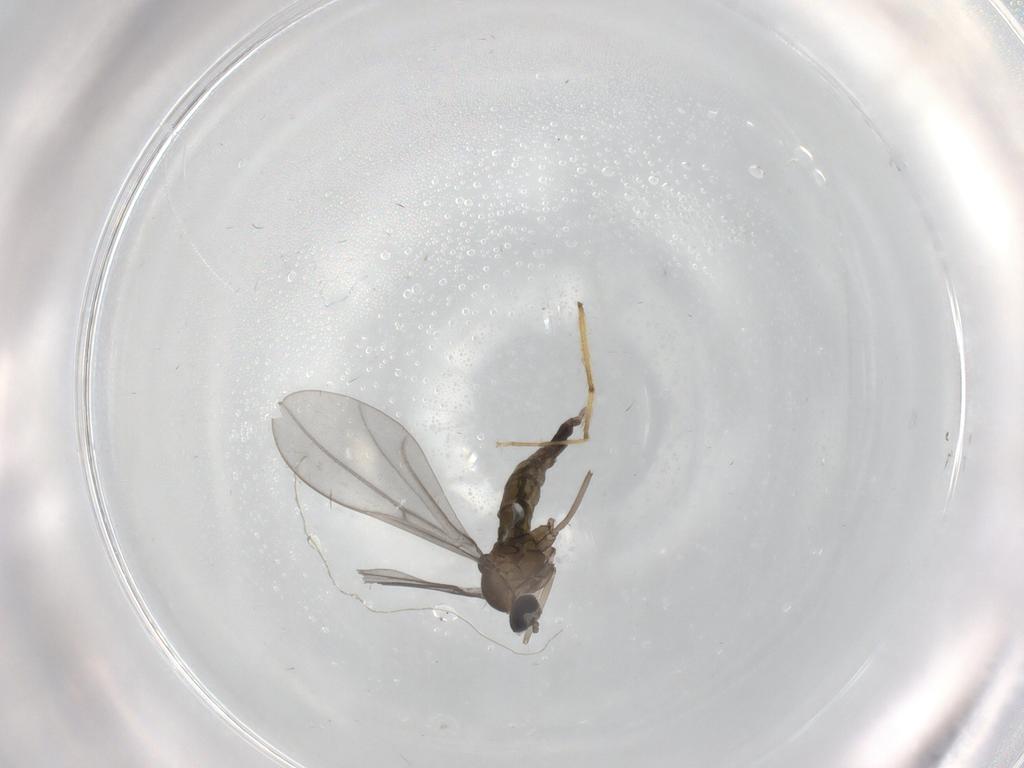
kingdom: Animalia
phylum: Arthropoda
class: Insecta
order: Diptera
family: Cecidomyiidae
